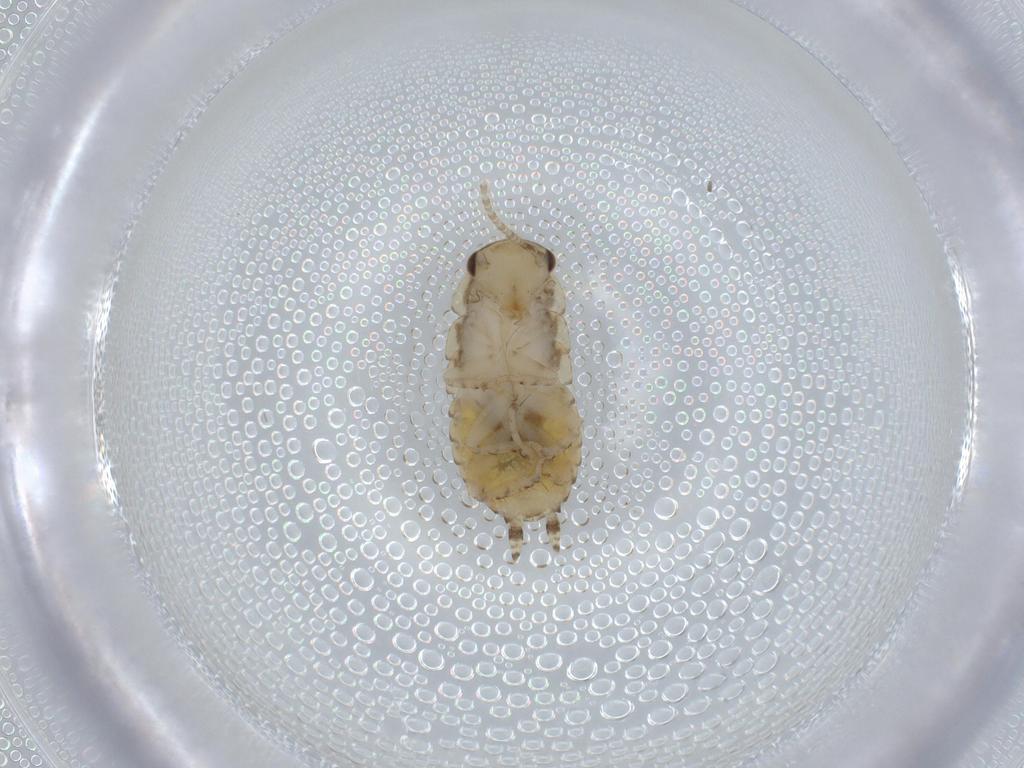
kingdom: Animalia
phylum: Arthropoda
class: Insecta
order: Blattodea
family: Ectobiidae
